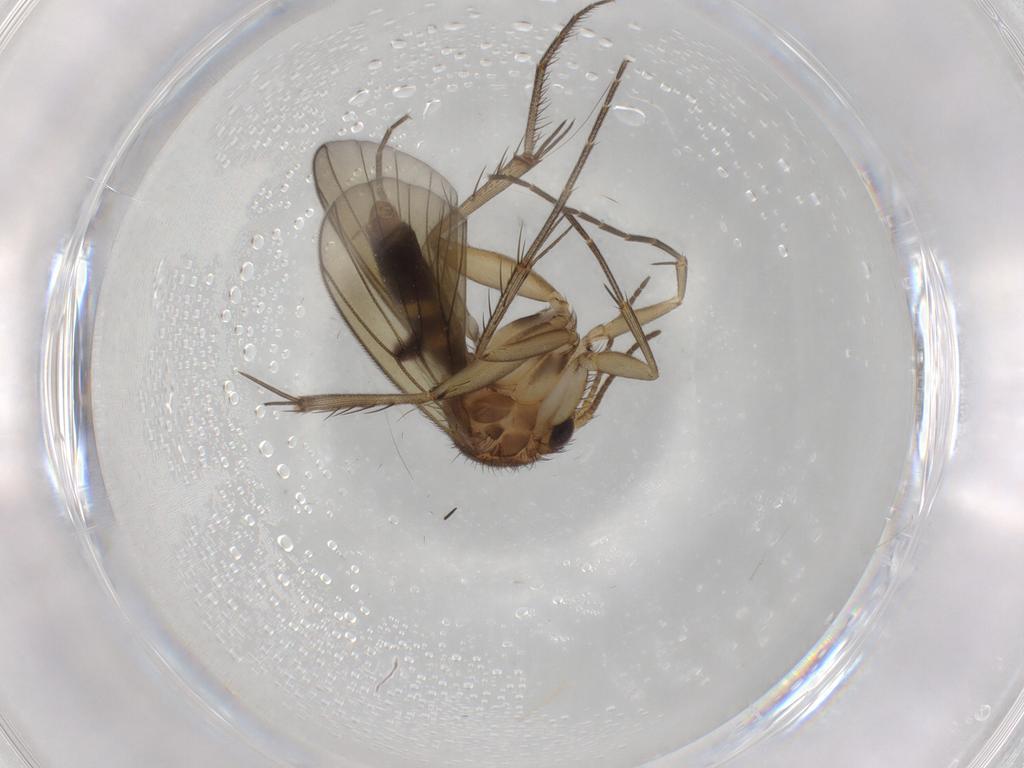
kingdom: Animalia
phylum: Arthropoda
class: Insecta
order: Diptera
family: Mycetophilidae
